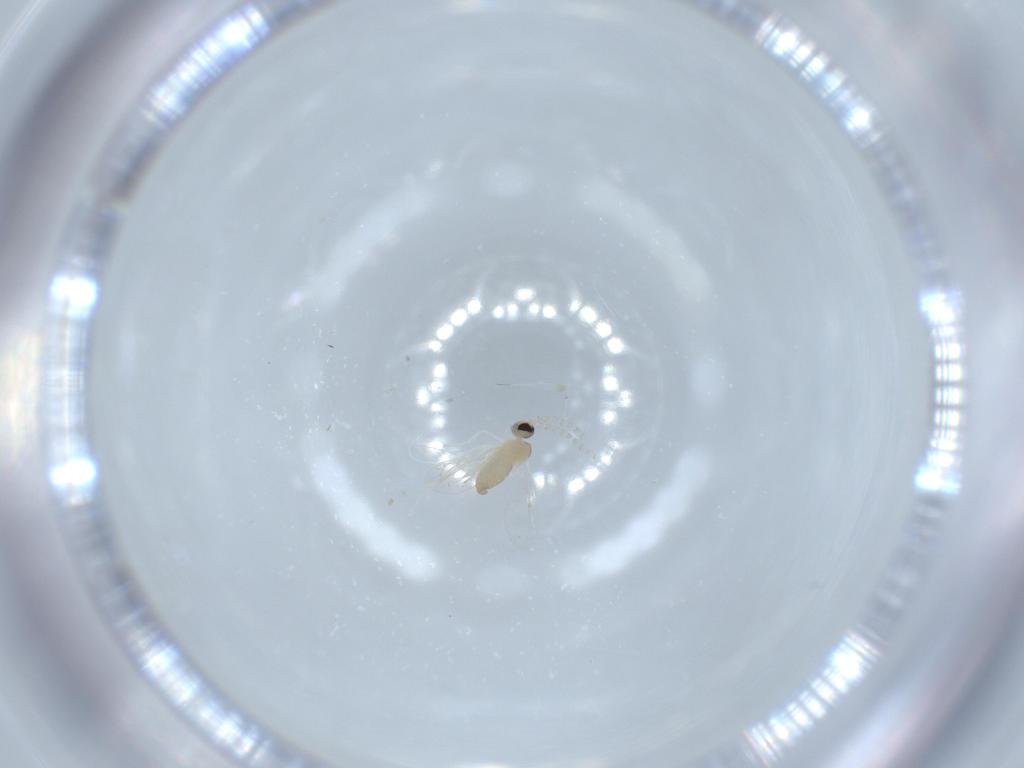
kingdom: Animalia
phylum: Arthropoda
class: Insecta
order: Diptera
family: Cecidomyiidae
